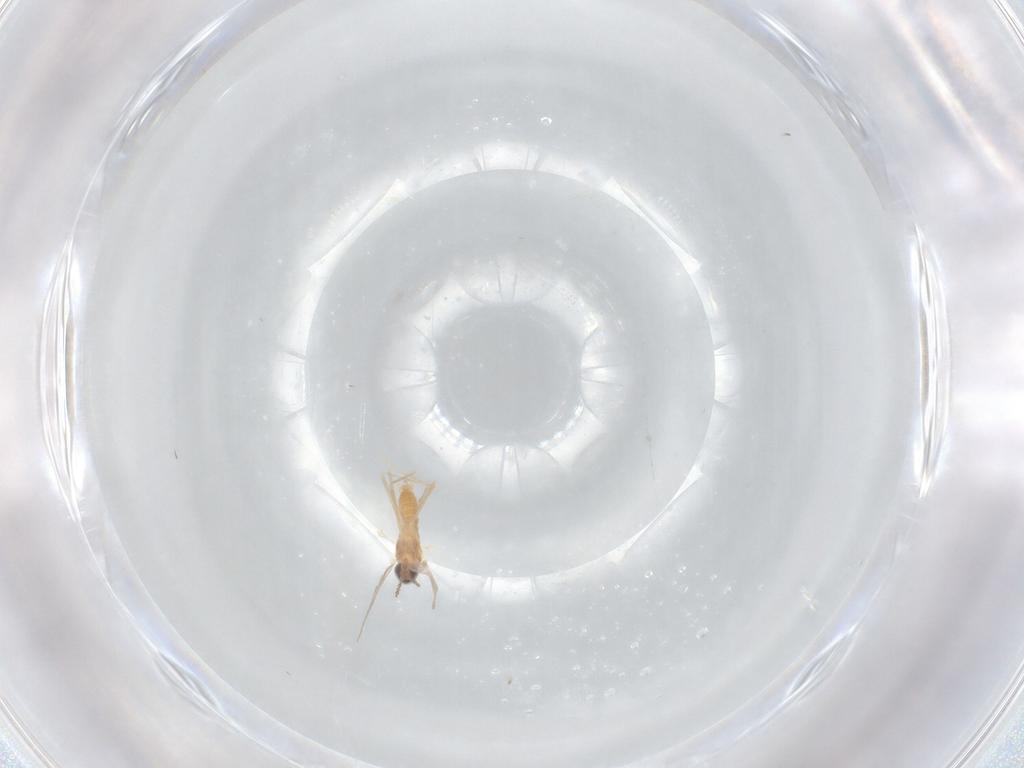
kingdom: Animalia
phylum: Arthropoda
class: Insecta
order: Diptera
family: Cecidomyiidae
